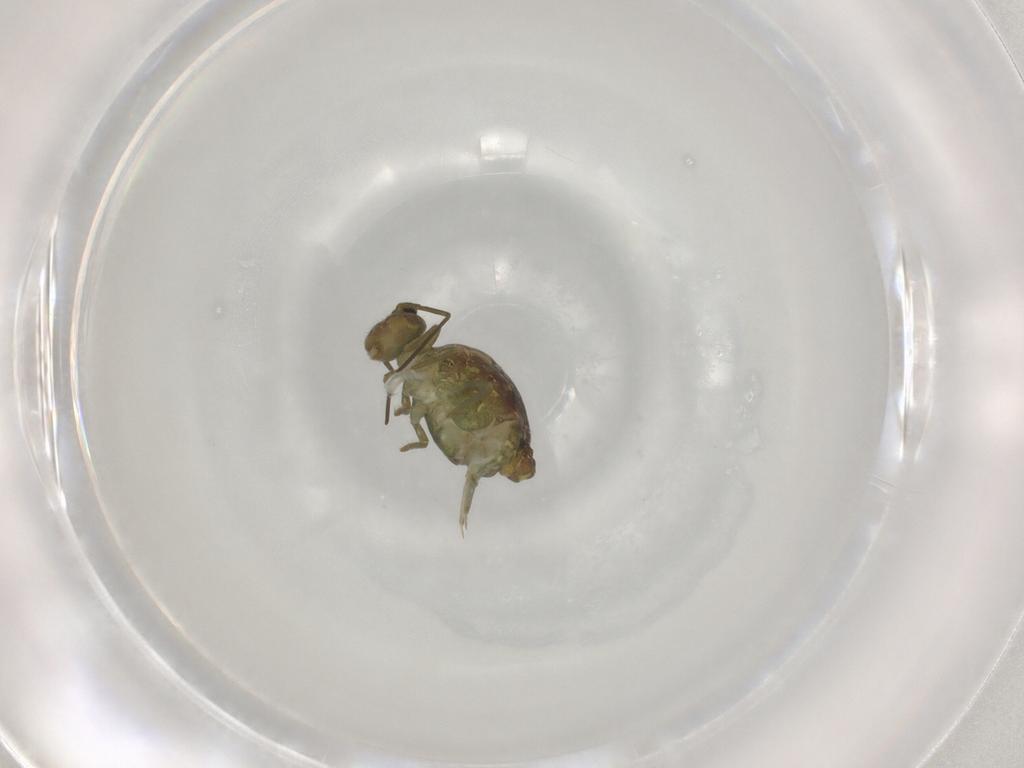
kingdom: Animalia
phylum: Arthropoda
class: Collembola
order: Symphypleona
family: Sminthuridae
